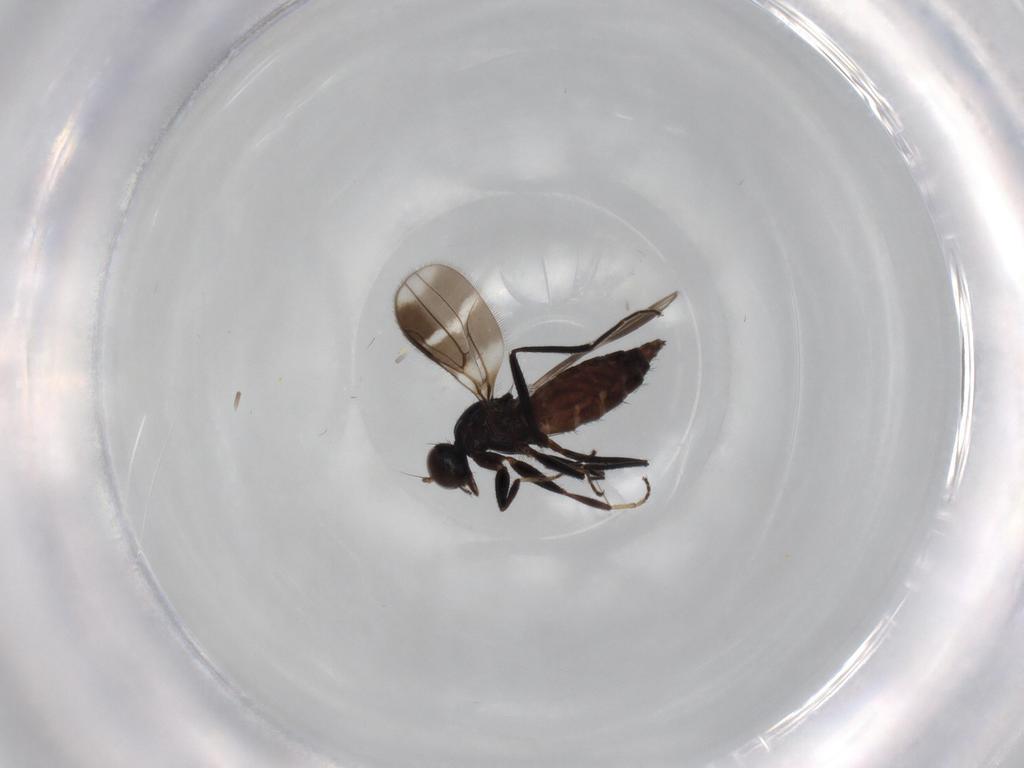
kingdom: Animalia
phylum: Arthropoda
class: Insecta
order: Diptera
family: Hybotidae
